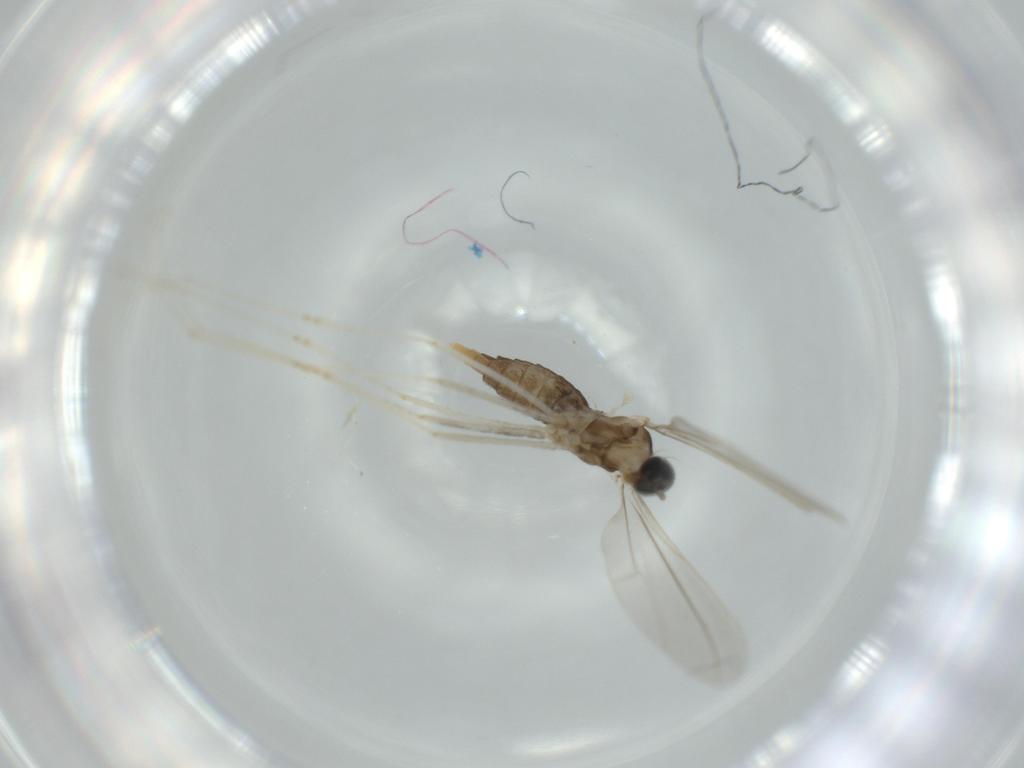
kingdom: Animalia
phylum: Arthropoda
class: Insecta
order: Diptera
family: Cecidomyiidae
